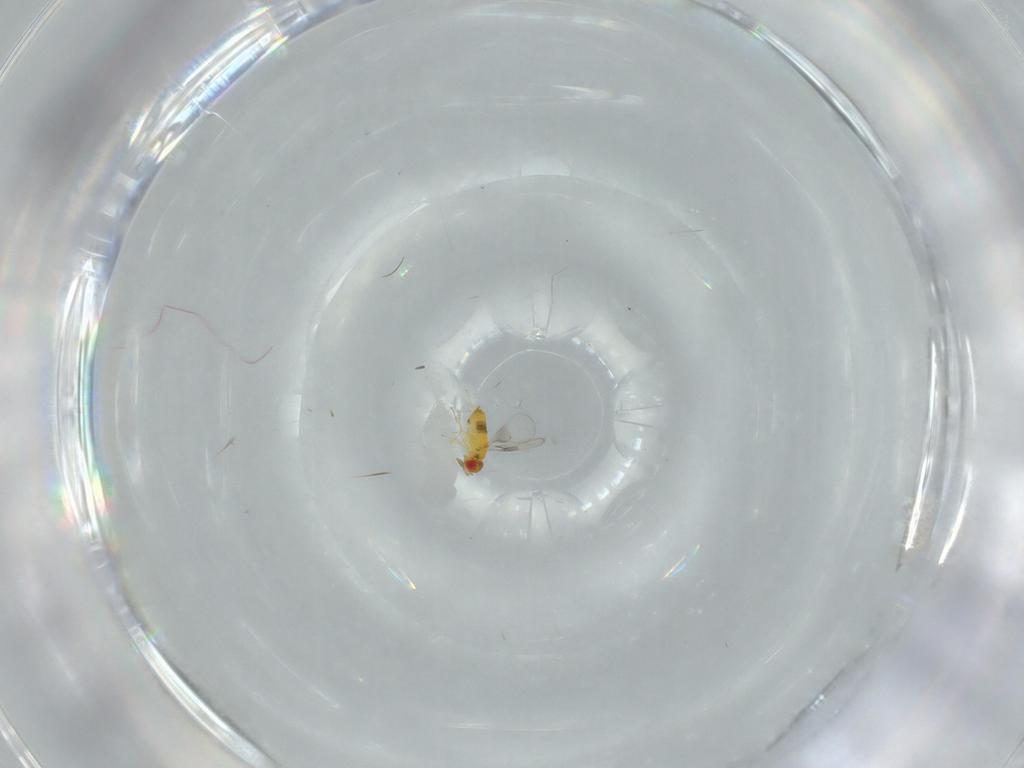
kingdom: Animalia
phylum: Arthropoda
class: Insecta
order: Hymenoptera
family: Trichogrammatidae
